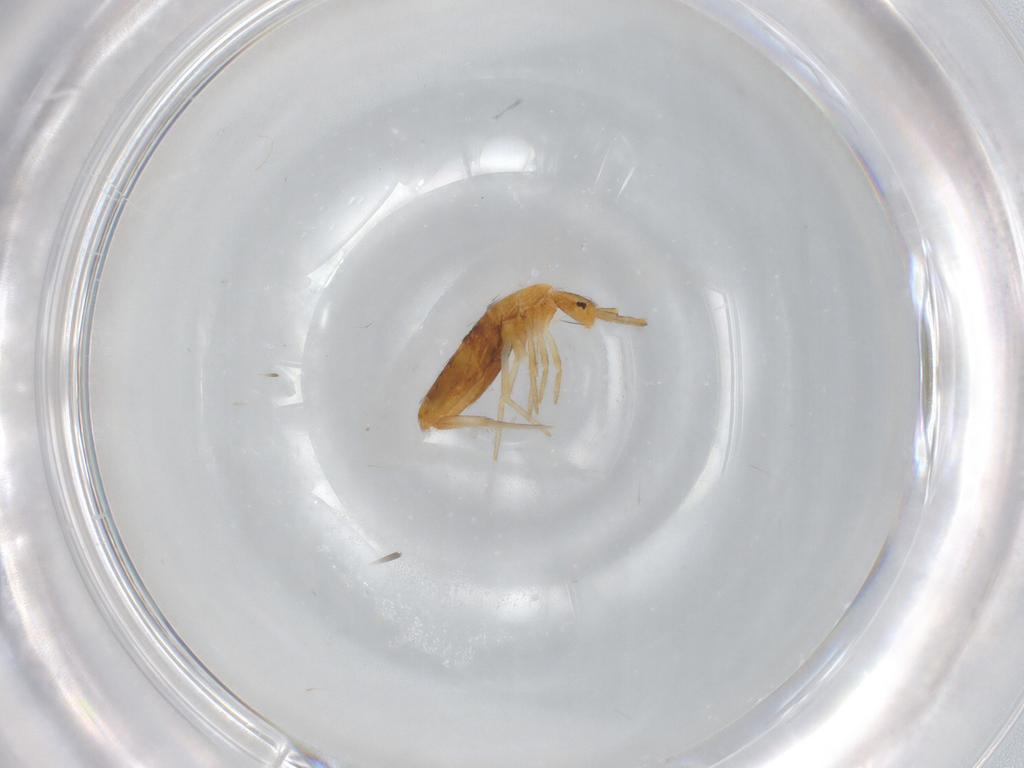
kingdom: Animalia
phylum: Arthropoda
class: Collembola
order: Entomobryomorpha
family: Entomobryidae
